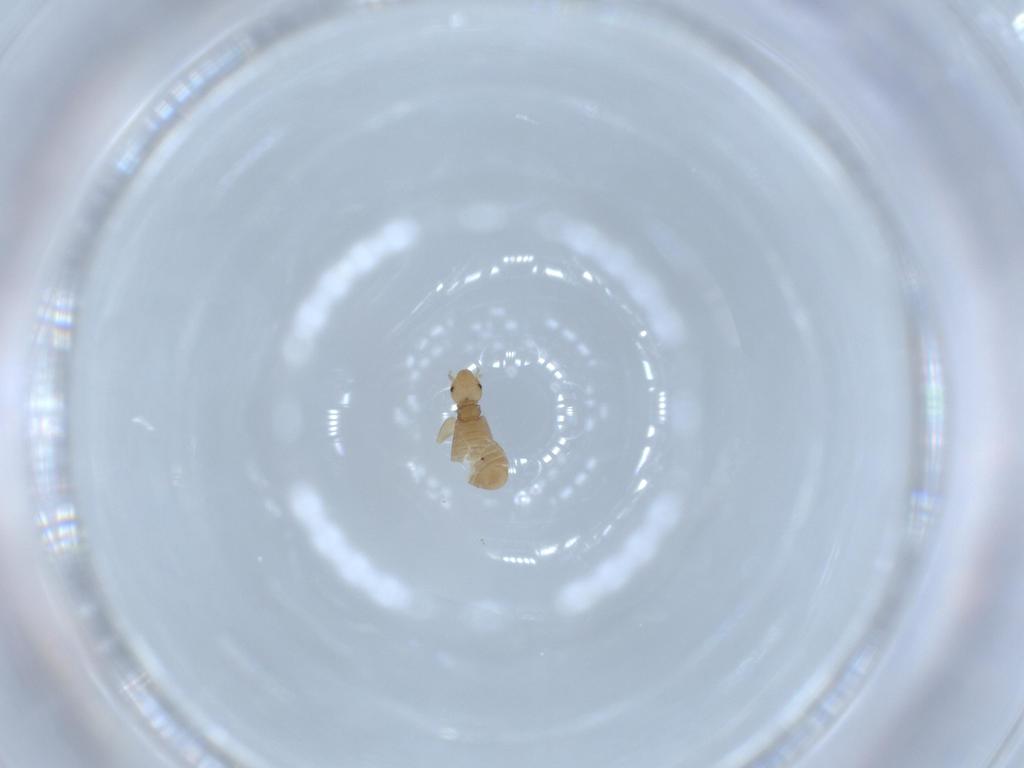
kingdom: Animalia
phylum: Arthropoda
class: Insecta
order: Psocodea
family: Liposcelididae
